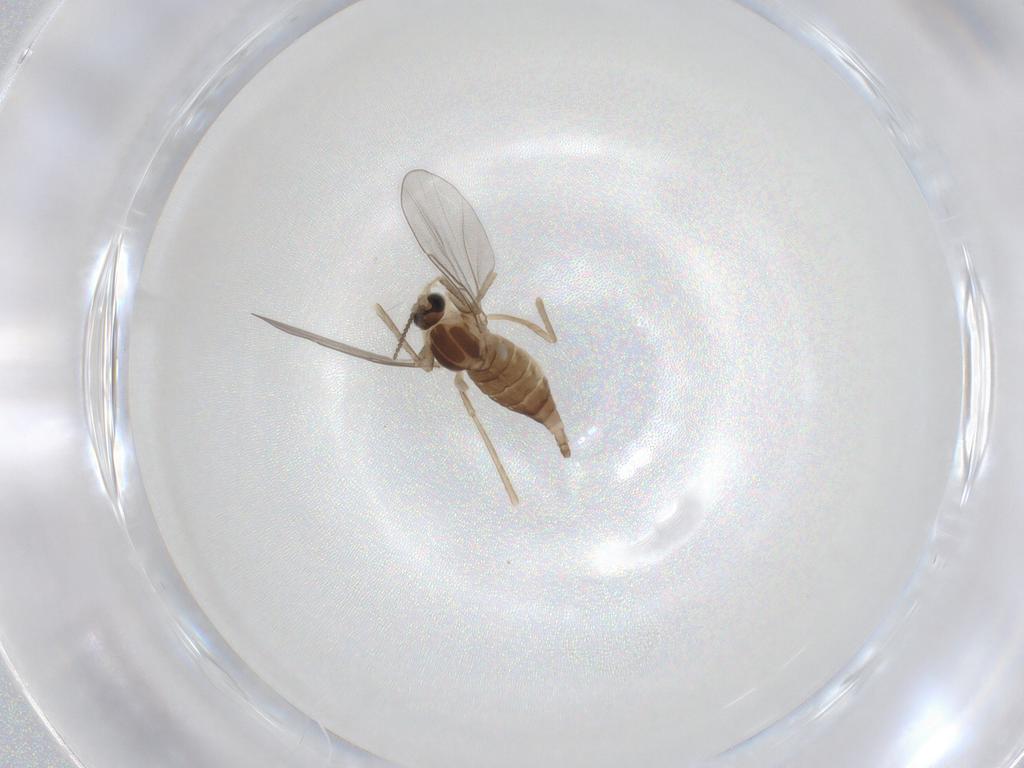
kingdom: Animalia
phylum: Arthropoda
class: Insecta
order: Diptera
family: Cecidomyiidae
